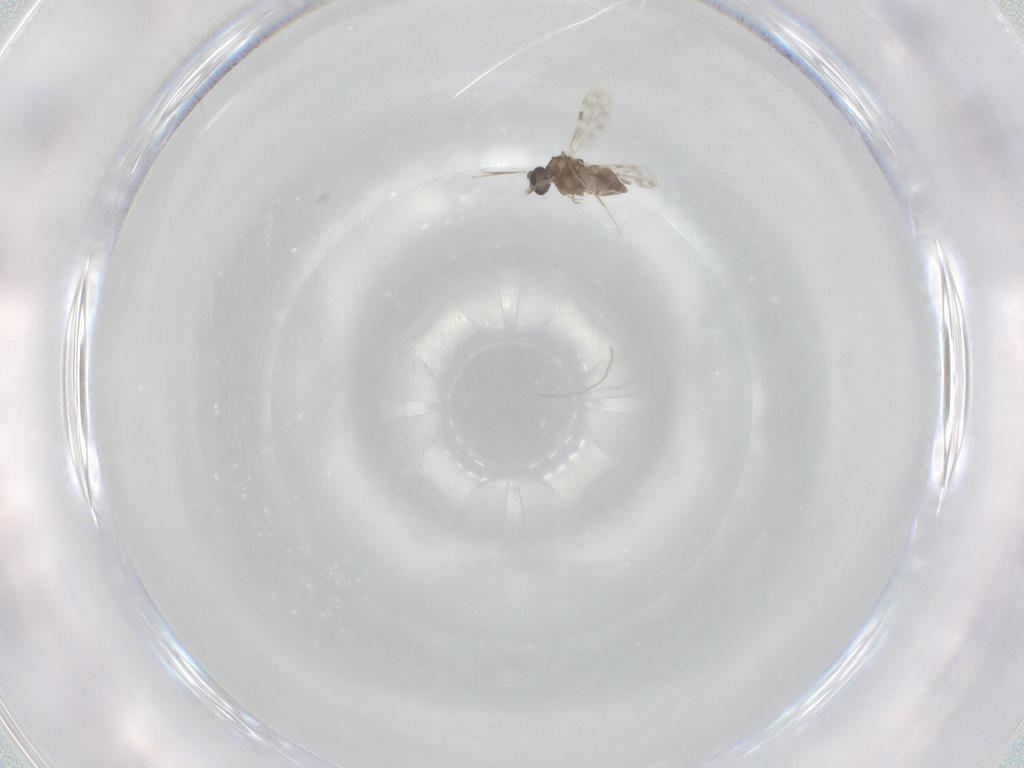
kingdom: Animalia
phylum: Arthropoda
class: Insecta
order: Diptera
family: Ceratopogonidae
